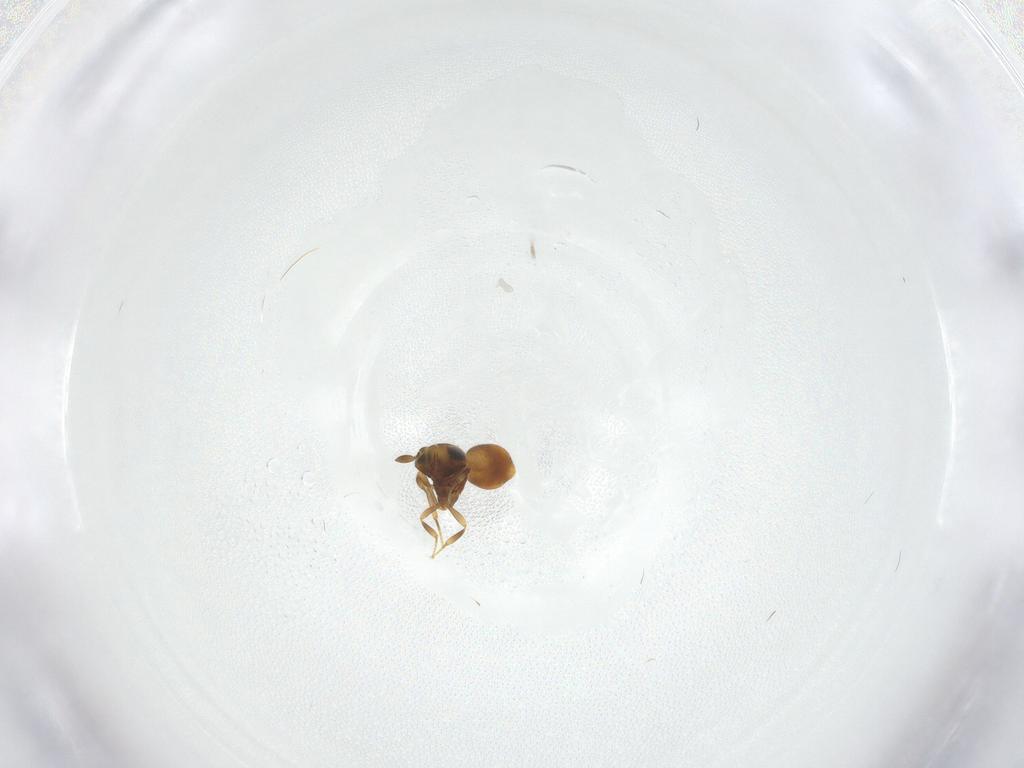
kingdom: Animalia
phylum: Arthropoda
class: Insecta
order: Hymenoptera
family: Scelionidae
